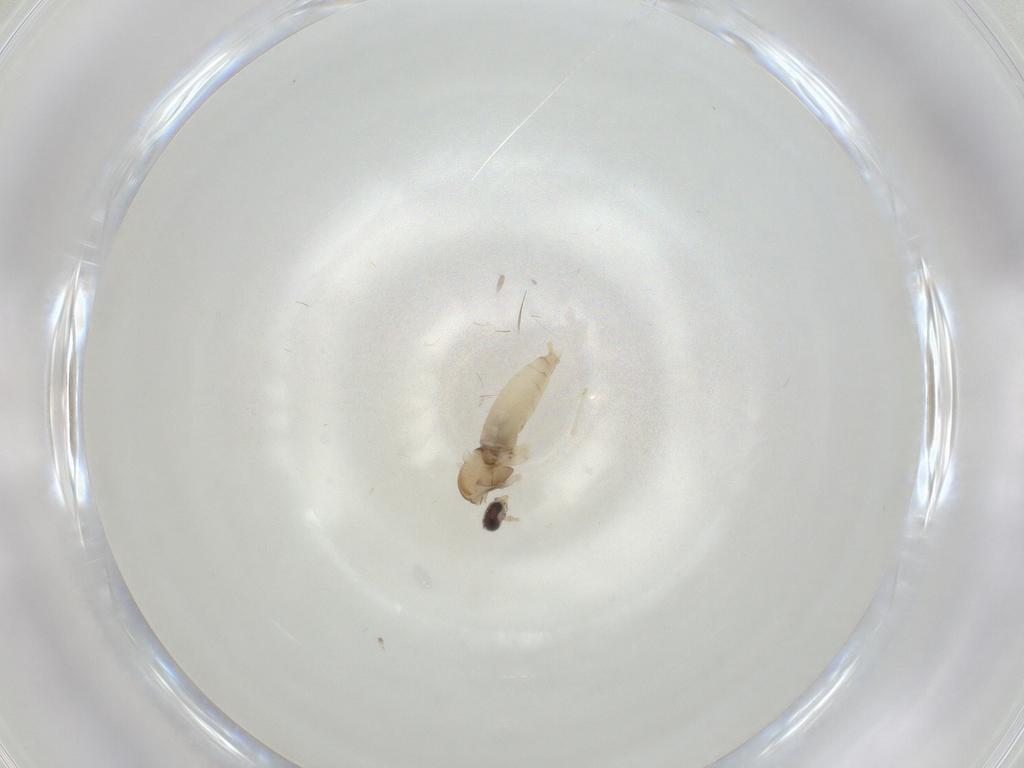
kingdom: Animalia
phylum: Arthropoda
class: Insecta
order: Diptera
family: Cecidomyiidae
